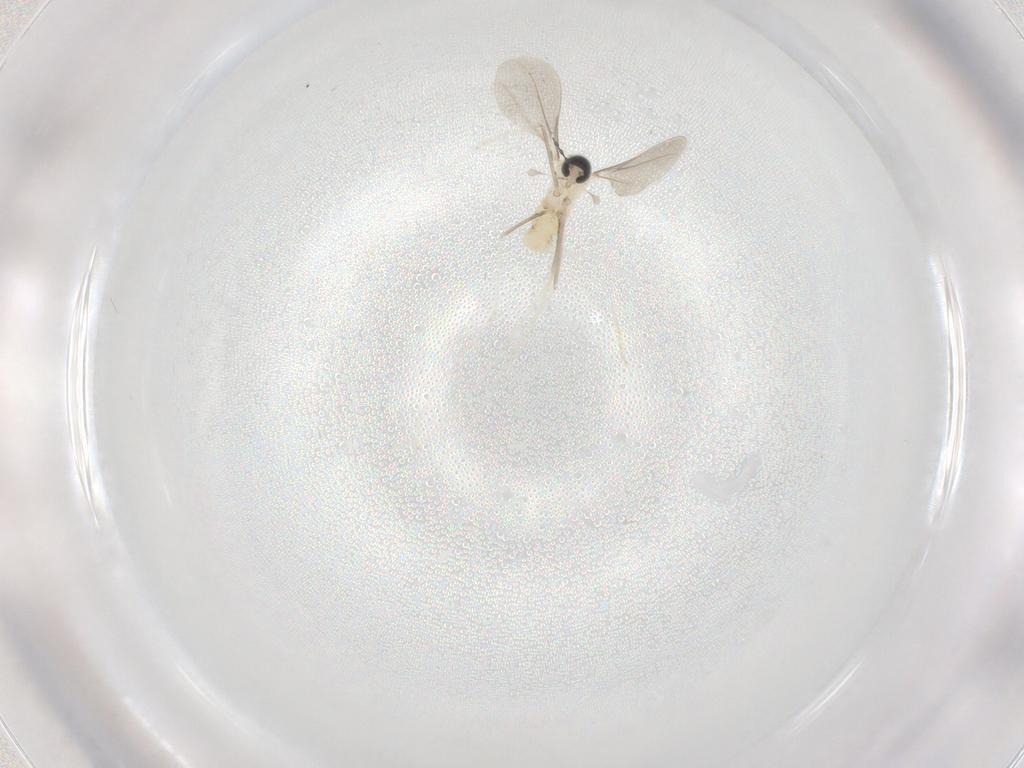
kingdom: Animalia
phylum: Arthropoda
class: Insecta
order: Diptera
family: Cecidomyiidae
